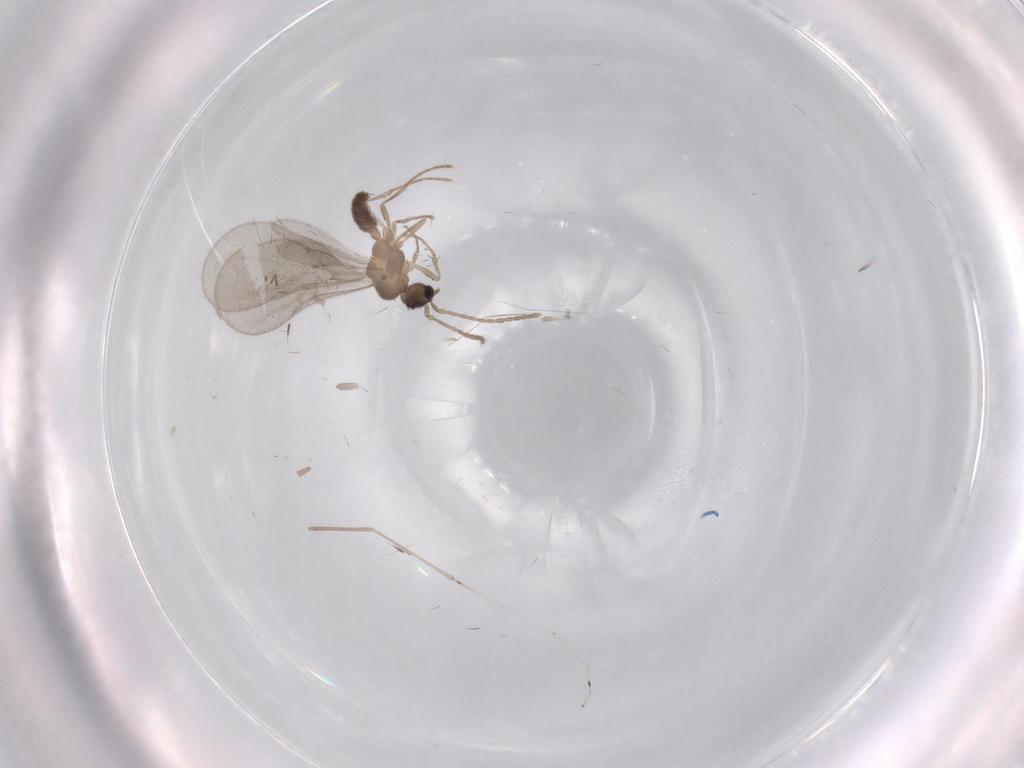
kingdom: Animalia
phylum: Arthropoda
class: Insecta
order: Hymenoptera
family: Formicidae
